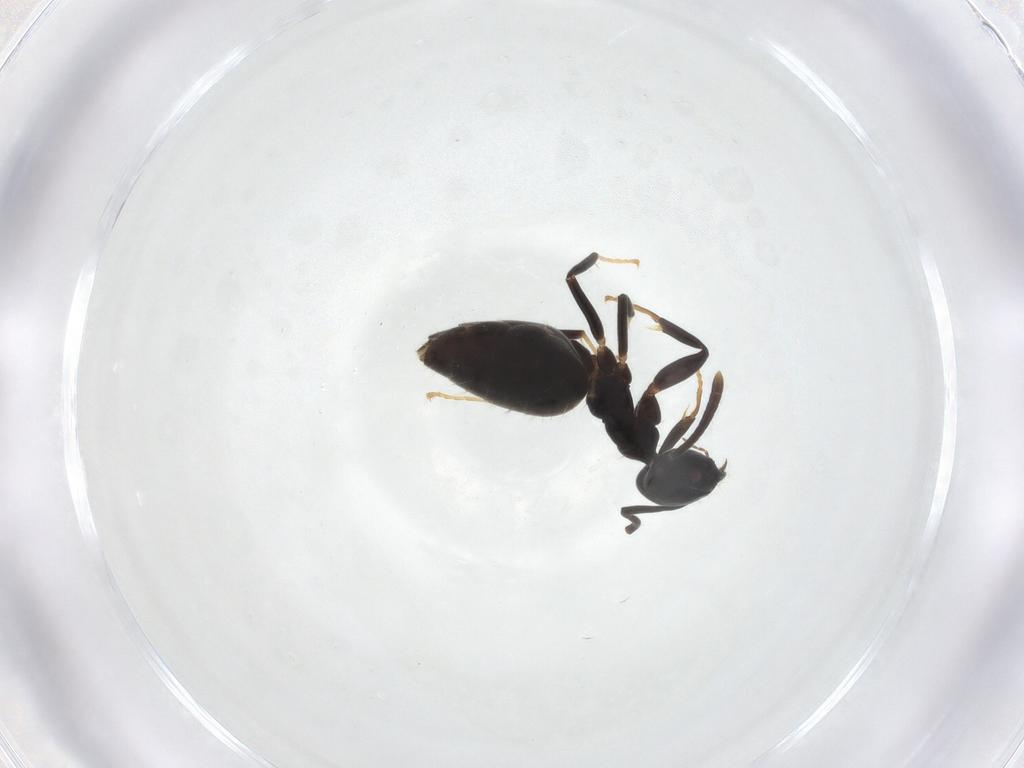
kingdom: Animalia
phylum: Arthropoda
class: Insecta
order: Hymenoptera
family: Formicidae
